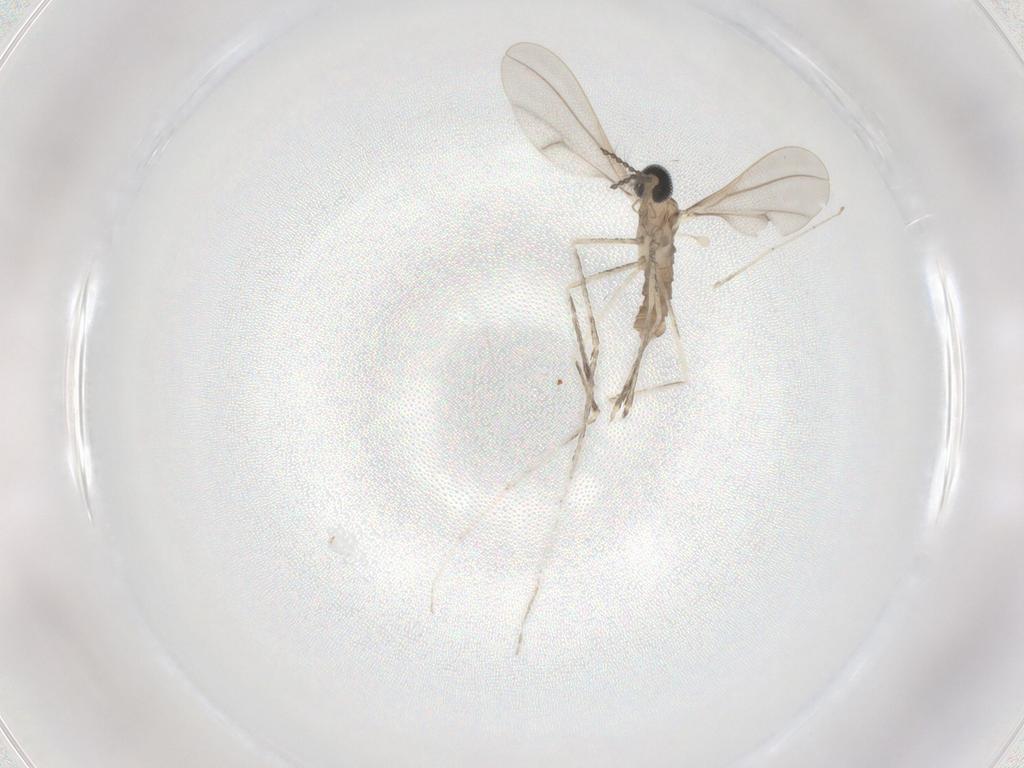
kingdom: Animalia
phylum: Arthropoda
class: Insecta
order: Diptera
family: Cecidomyiidae
